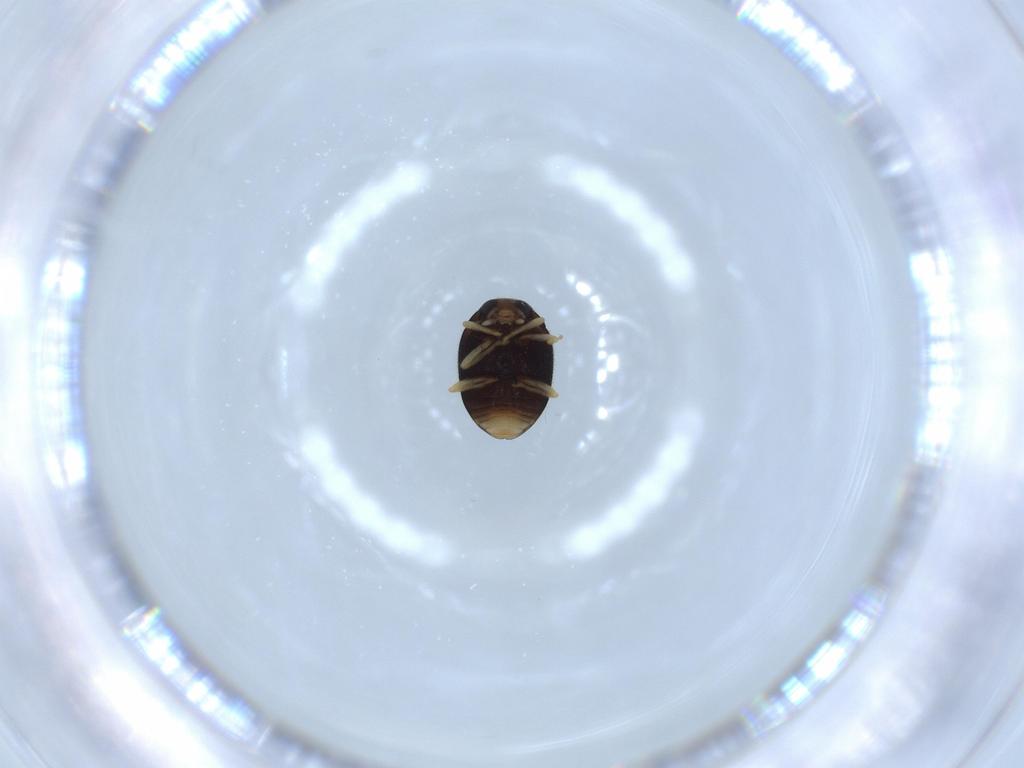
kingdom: Animalia
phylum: Arthropoda
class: Insecta
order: Coleoptera
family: Coccinellidae
